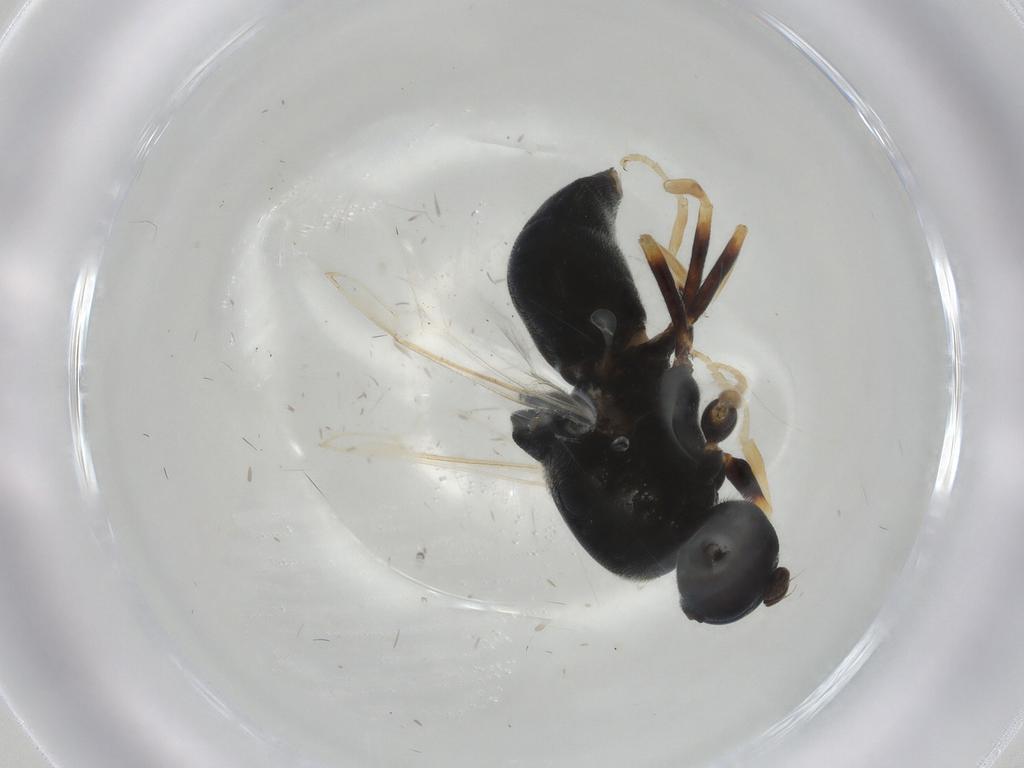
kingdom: Animalia
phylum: Arthropoda
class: Insecta
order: Diptera
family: Stratiomyidae
